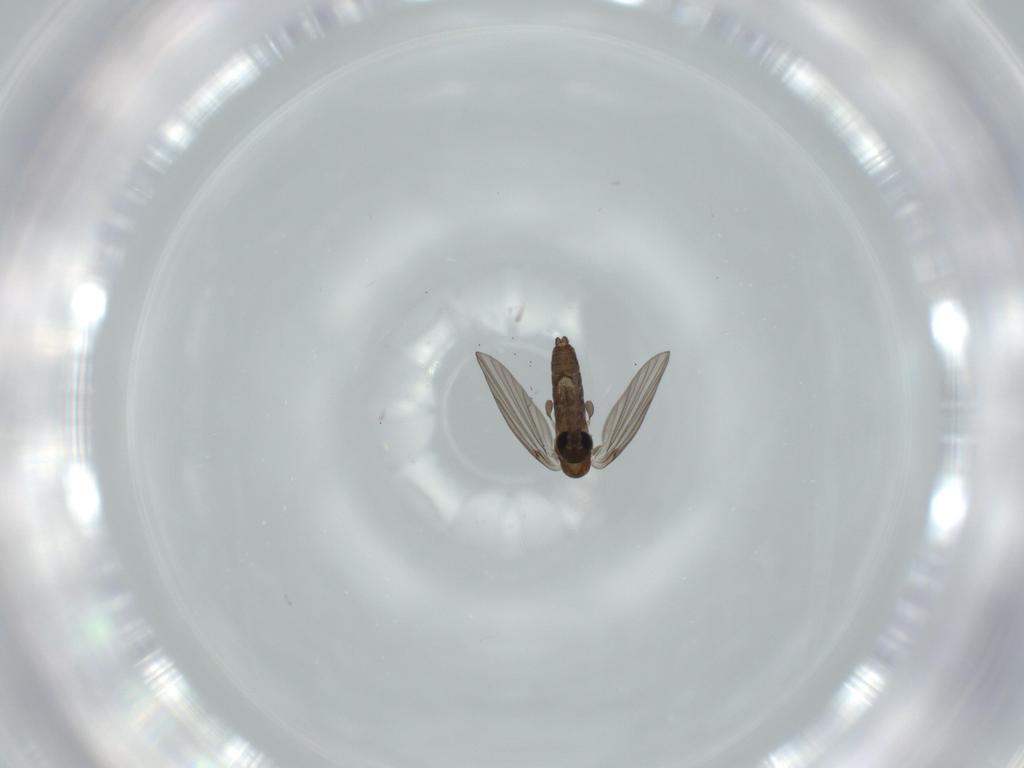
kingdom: Animalia
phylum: Arthropoda
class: Insecta
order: Diptera
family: Psychodidae
